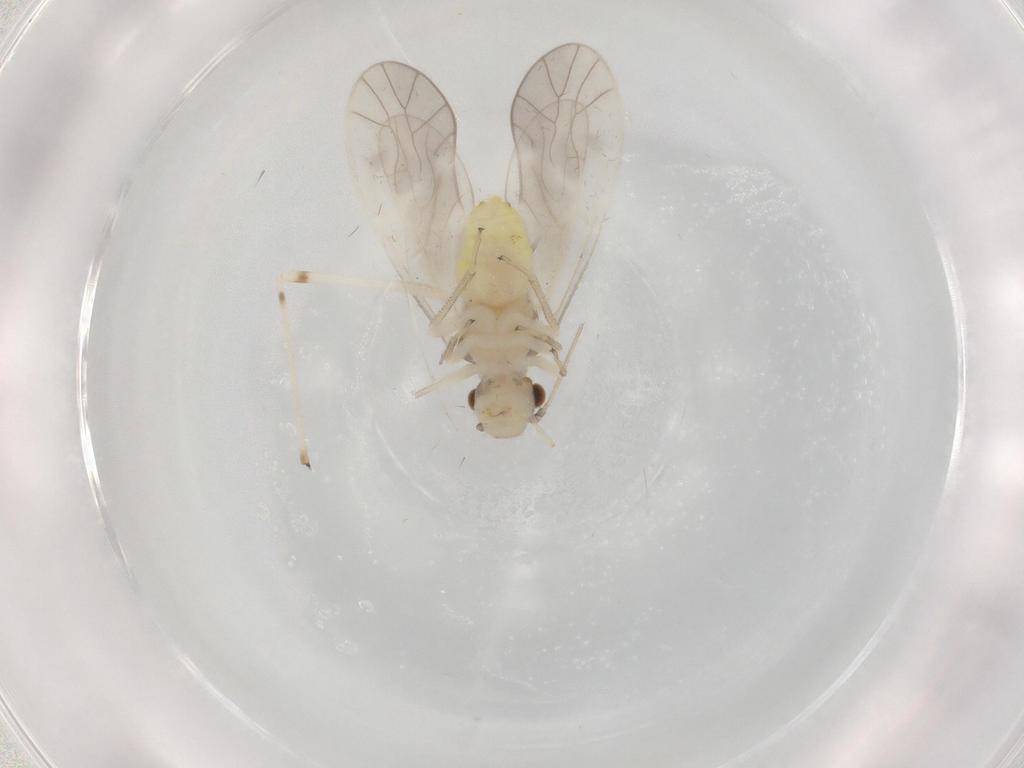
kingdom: Animalia
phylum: Arthropoda
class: Insecta
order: Psocodea
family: Caeciliusidae
